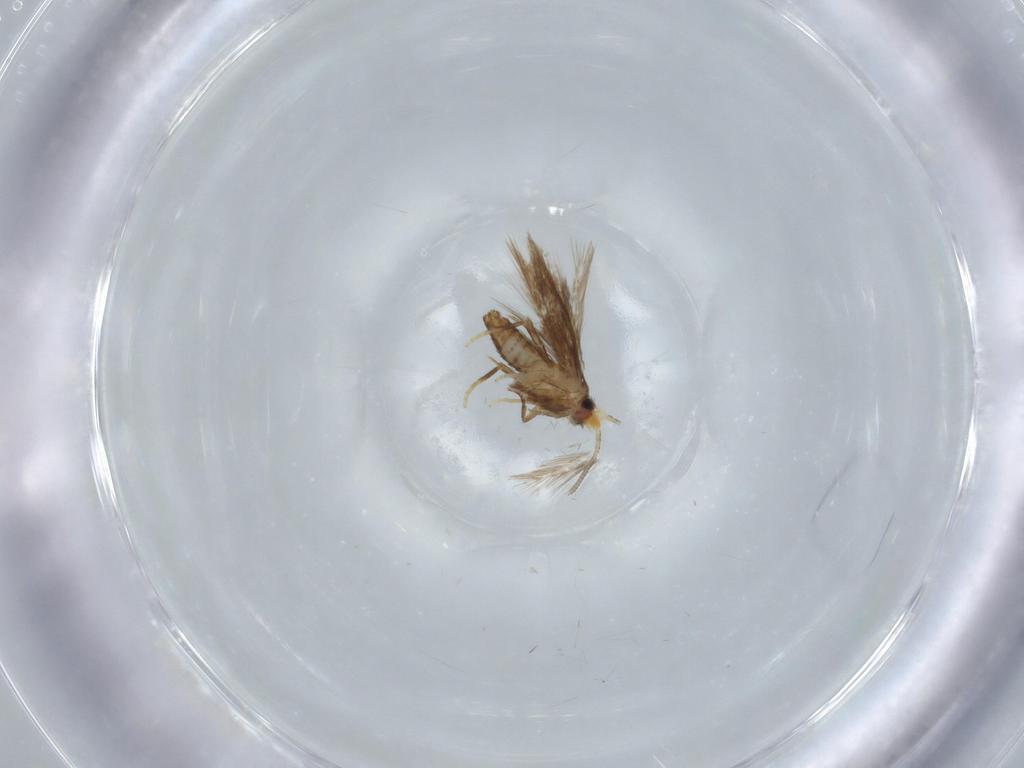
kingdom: Animalia
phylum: Arthropoda
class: Insecta
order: Lepidoptera
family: Nepticulidae
